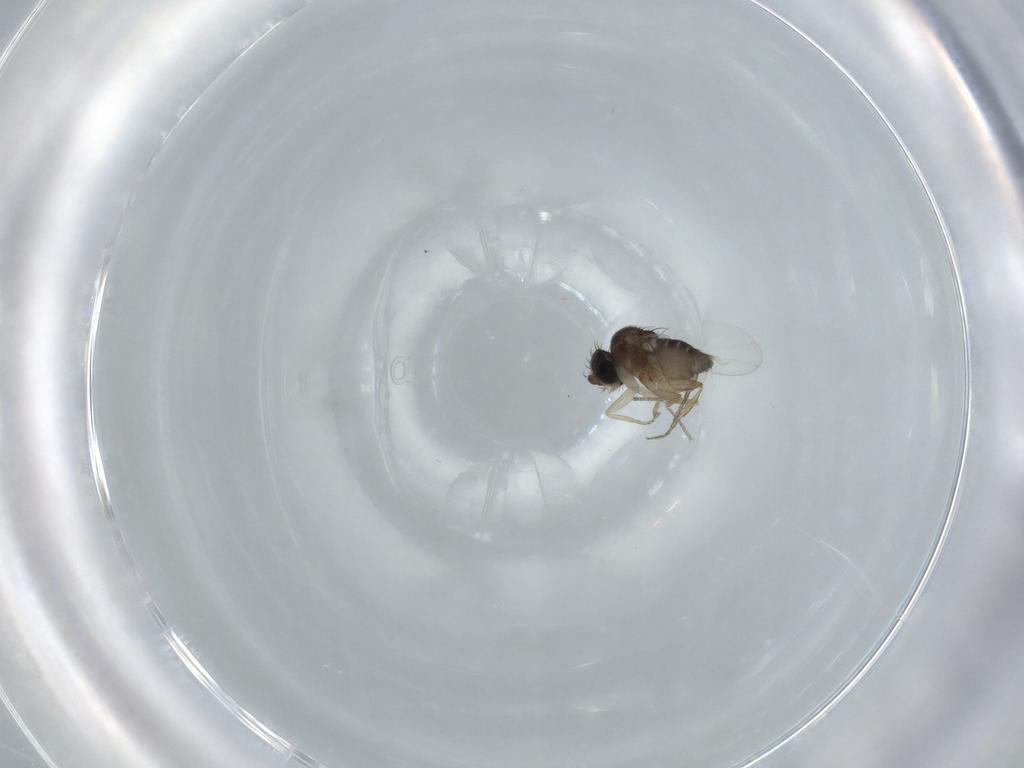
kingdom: Animalia
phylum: Arthropoda
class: Insecta
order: Diptera
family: Phoridae
